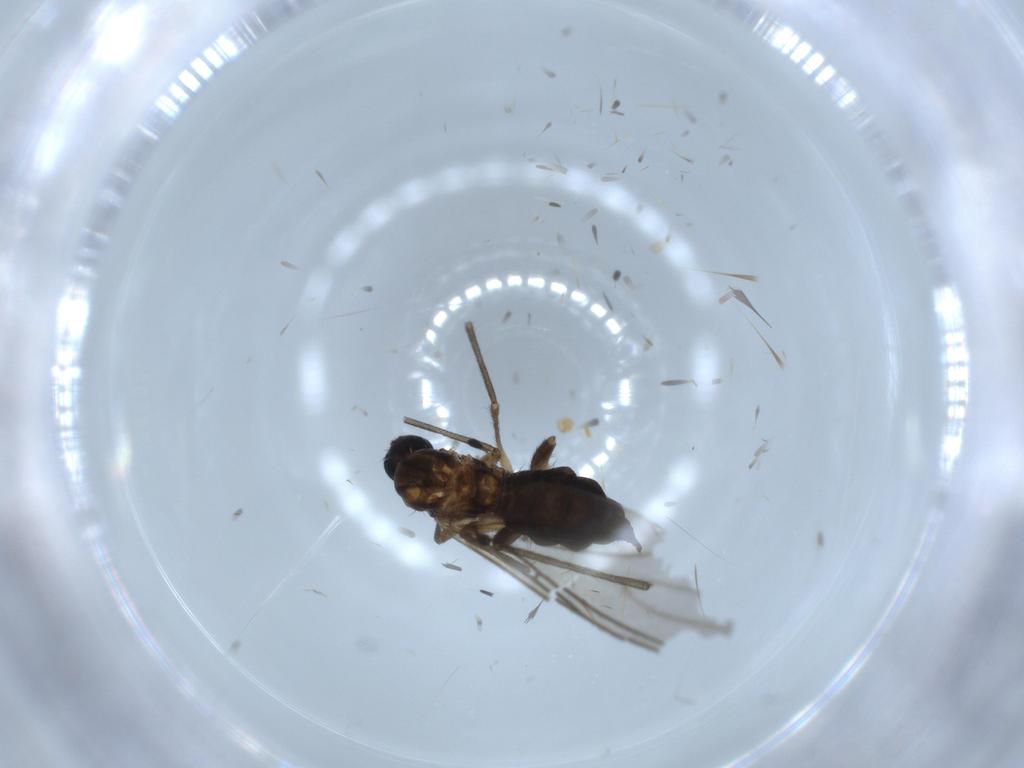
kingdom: Animalia
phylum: Arthropoda
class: Insecta
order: Diptera
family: Sciaridae
